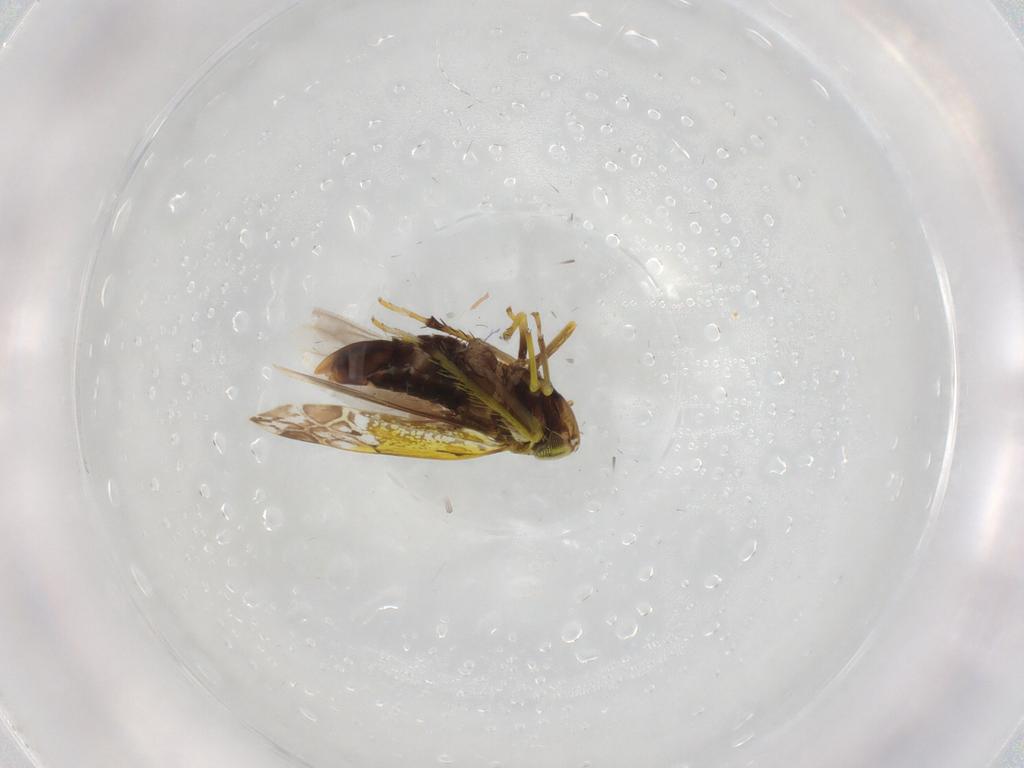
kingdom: Animalia
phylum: Arthropoda
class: Insecta
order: Hemiptera
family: Cicadellidae
